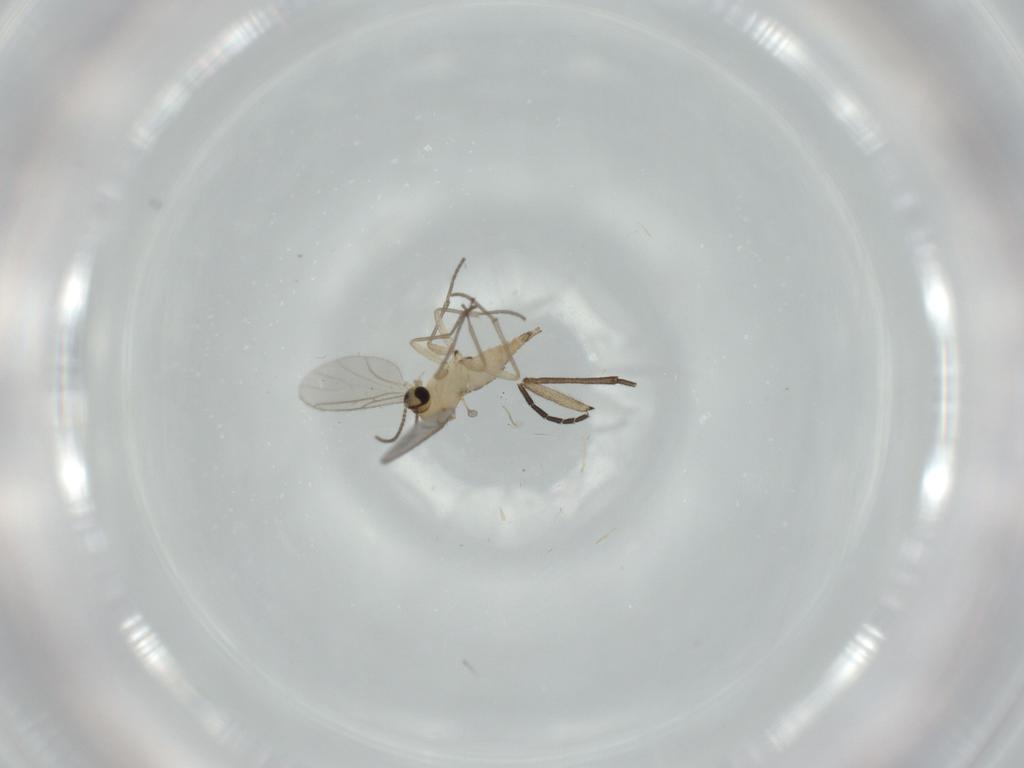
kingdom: Animalia
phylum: Arthropoda
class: Insecta
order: Diptera
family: Sciaridae
